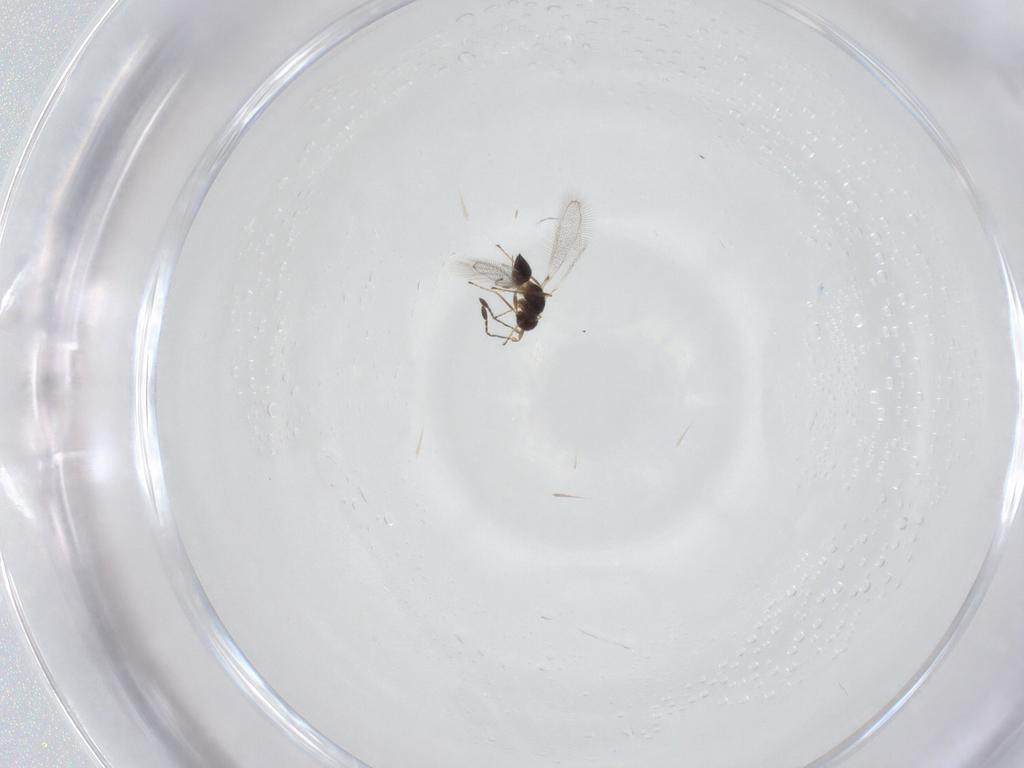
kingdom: Animalia
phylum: Arthropoda
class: Insecta
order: Hymenoptera
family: Mymaridae
